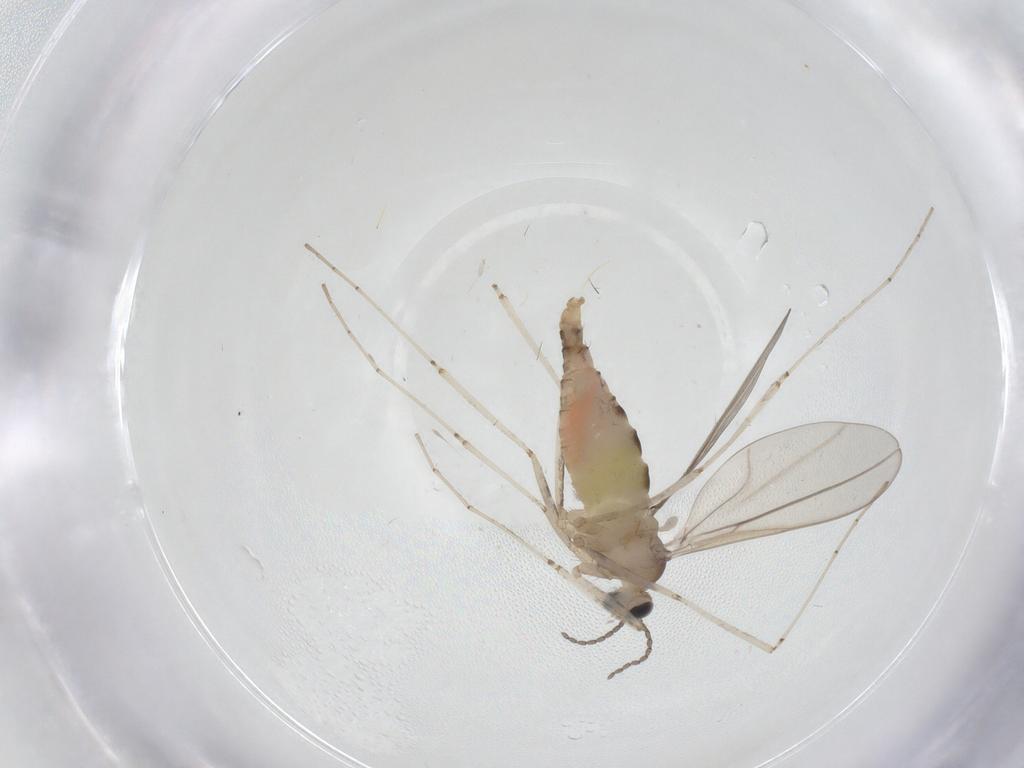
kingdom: Animalia
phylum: Arthropoda
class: Insecta
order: Diptera
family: Cecidomyiidae
